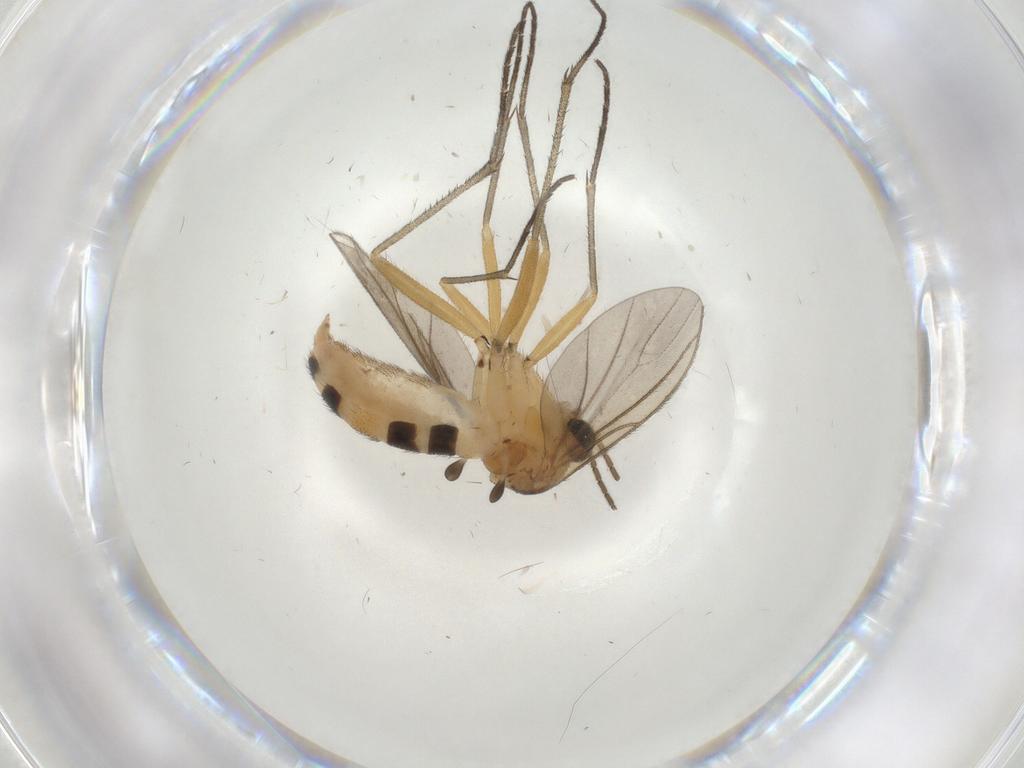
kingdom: Animalia
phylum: Arthropoda
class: Insecta
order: Diptera
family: Sciaridae
